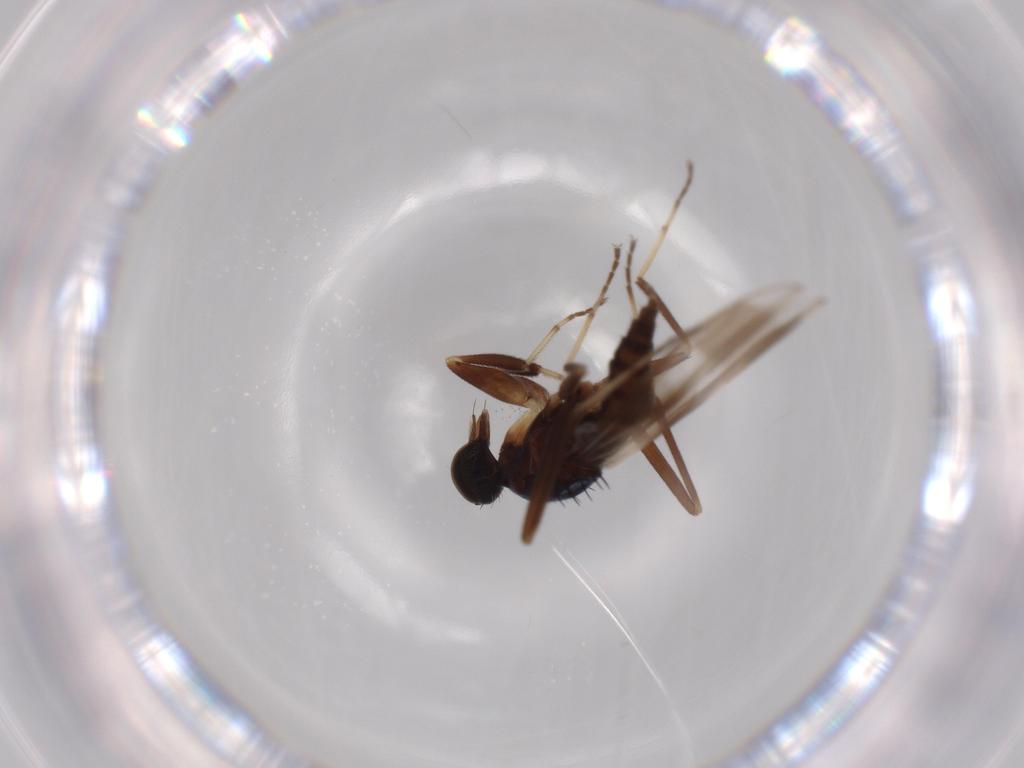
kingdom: Animalia
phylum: Arthropoda
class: Insecta
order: Diptera
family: Hybotidae
